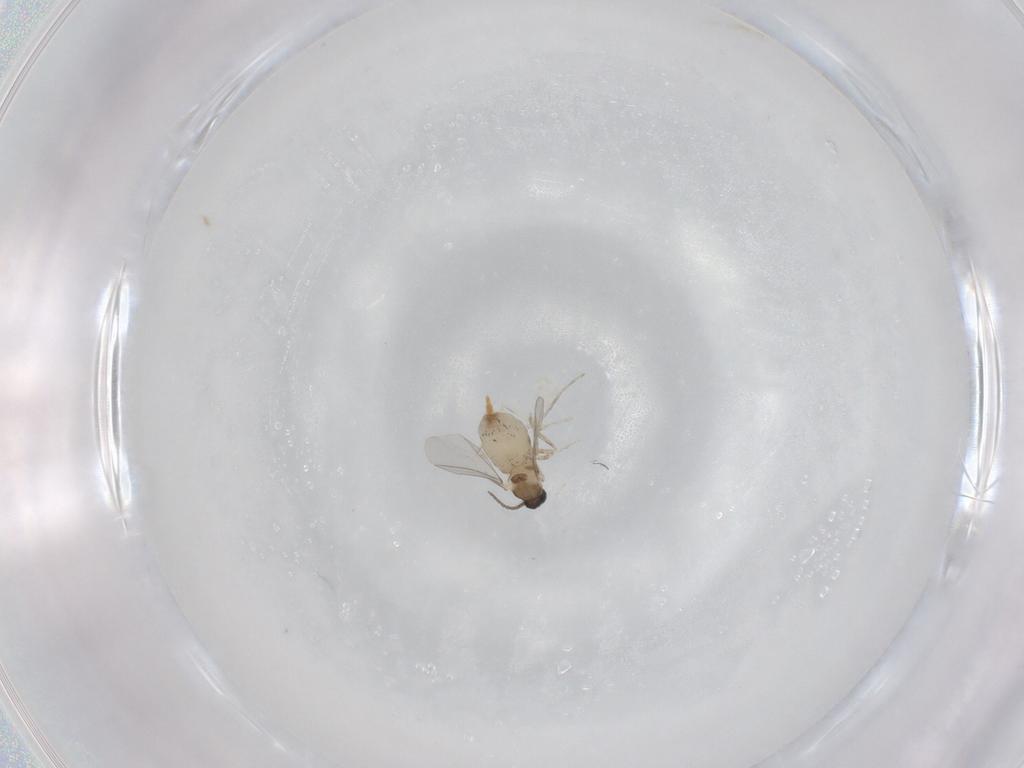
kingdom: Animalia
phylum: Arthropoda
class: Insecta
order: Diptera
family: Cecidomyiidae
